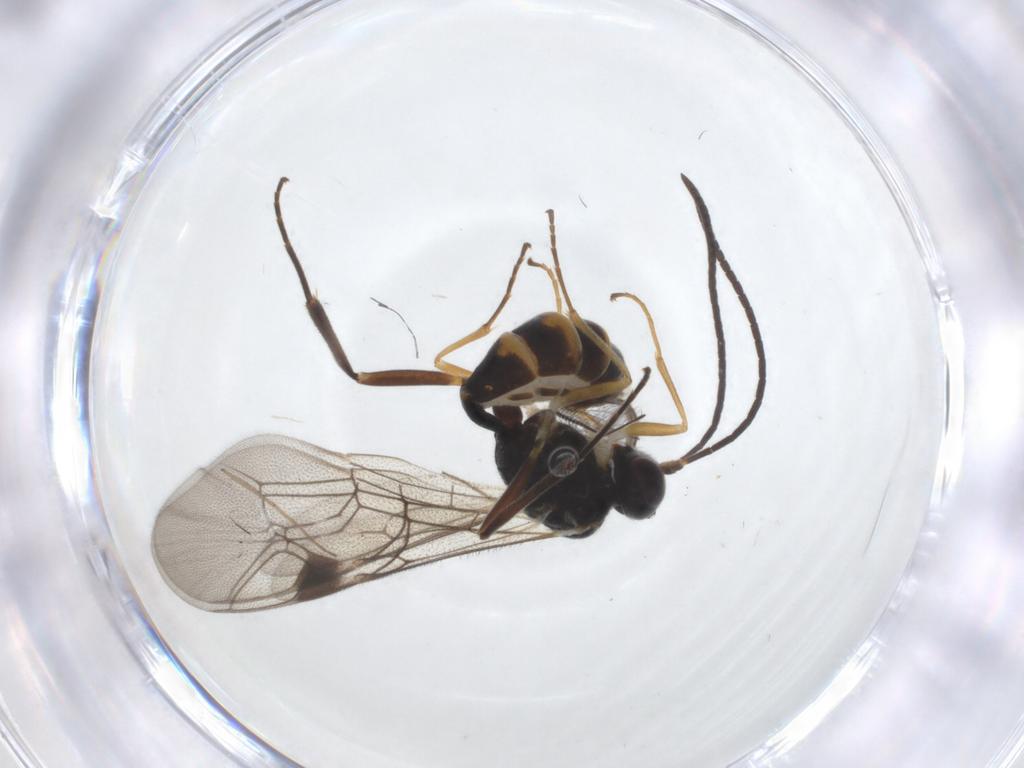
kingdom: Animalia
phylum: Arthropoda
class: Insecta
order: Hymenoptera
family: Ichneumonidae
